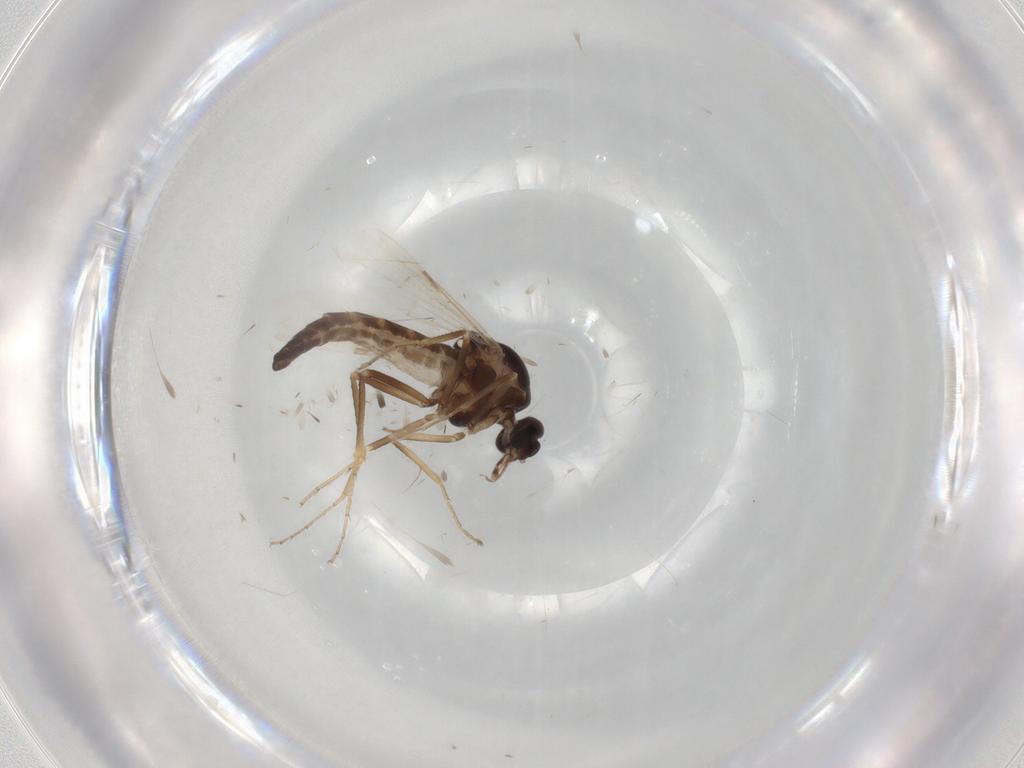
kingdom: Animalia
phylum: Arthropoda
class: Insecta
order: Diptera
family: Ceratopogonidae
